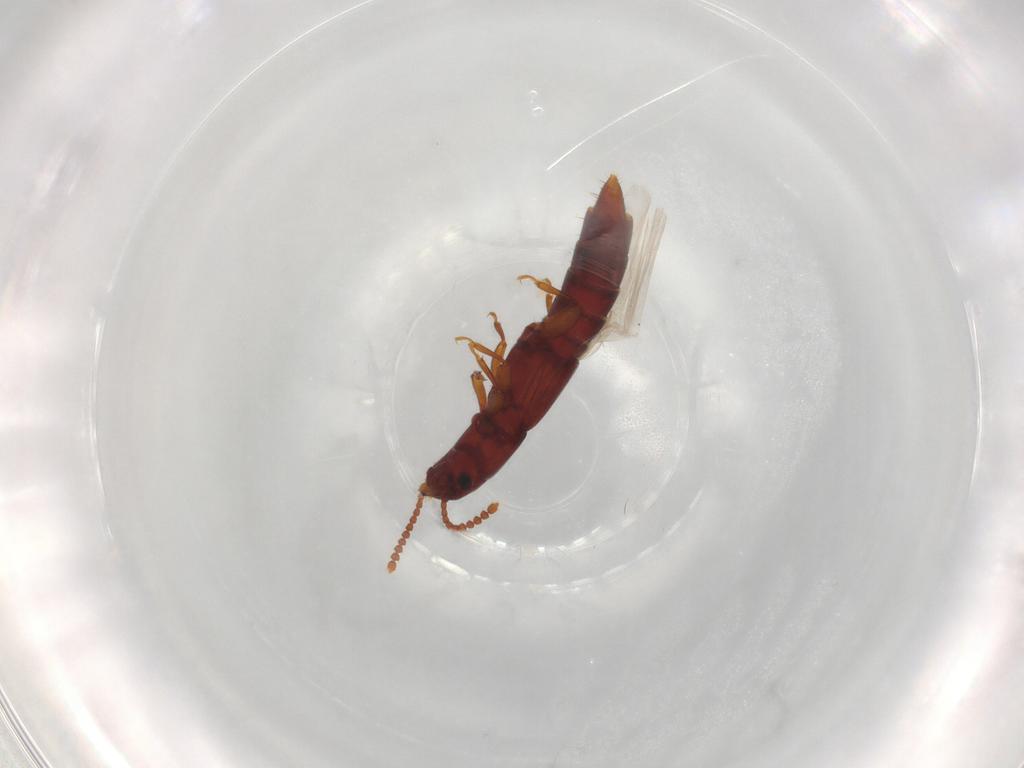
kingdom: Animalia
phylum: Arthropoda
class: Insecta
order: Coleoptera
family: Staphylinidae
